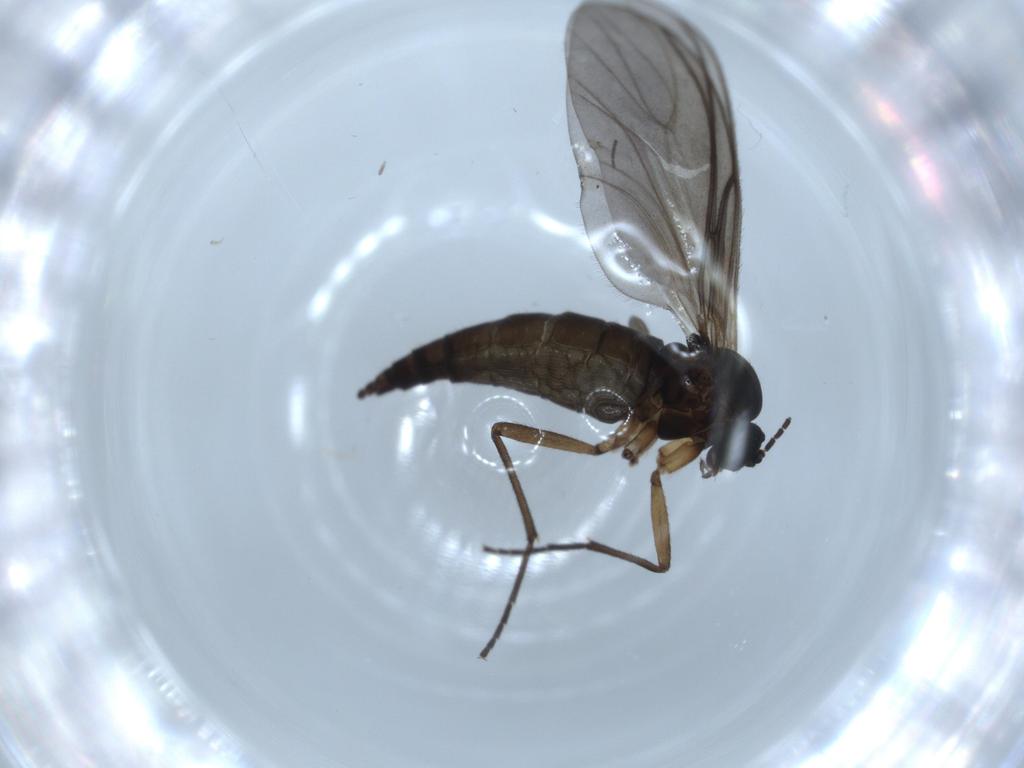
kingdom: Animalia
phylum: Arthropoda
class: Insecta
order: Diptera
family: Sciaridae
